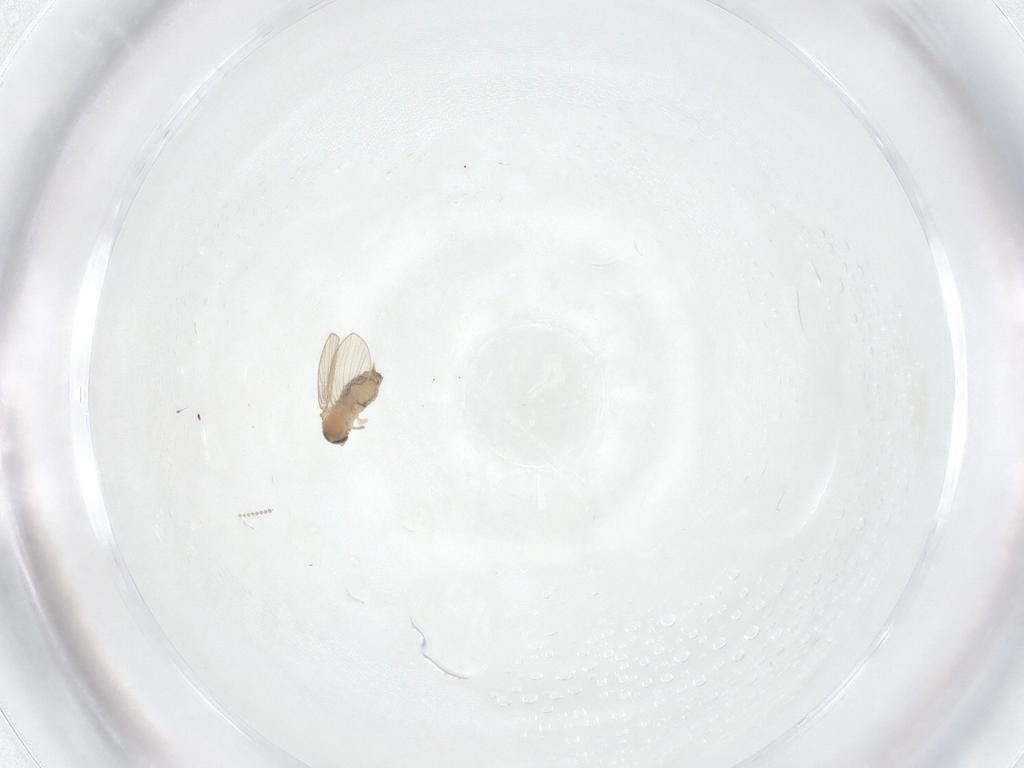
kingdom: Animalia
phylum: Arthropoda
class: Insecta
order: Diptera
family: Psychodidae
